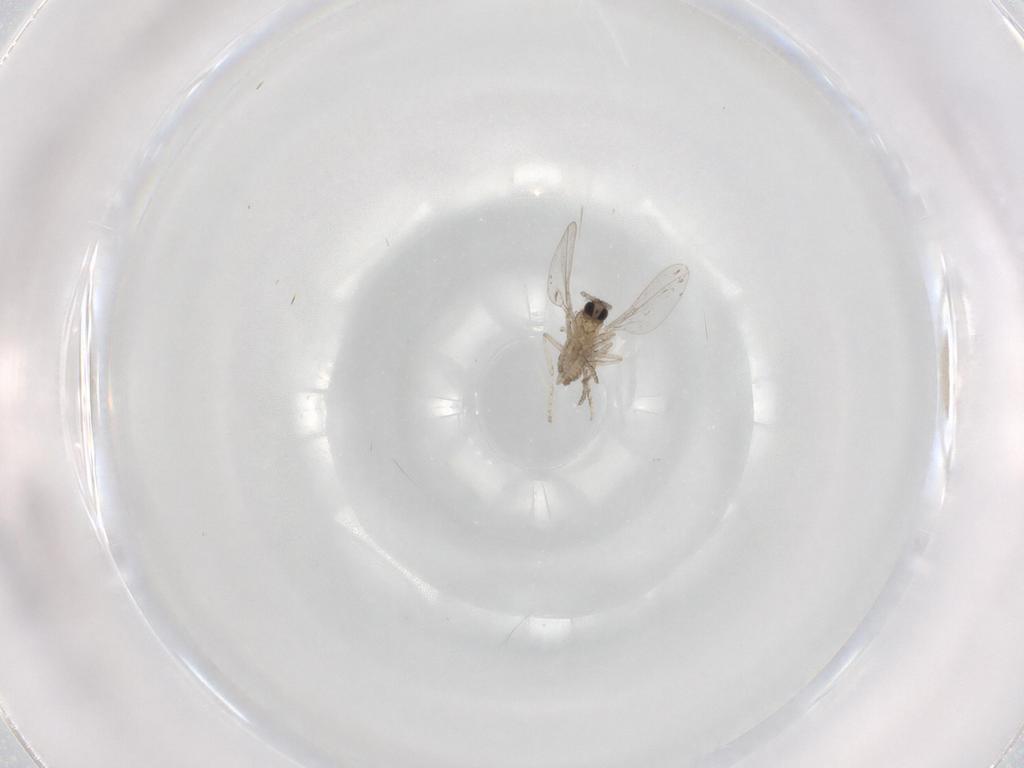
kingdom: Animalia
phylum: Arthropoda
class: Insecta
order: Diptera
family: Cecidomyiidae
